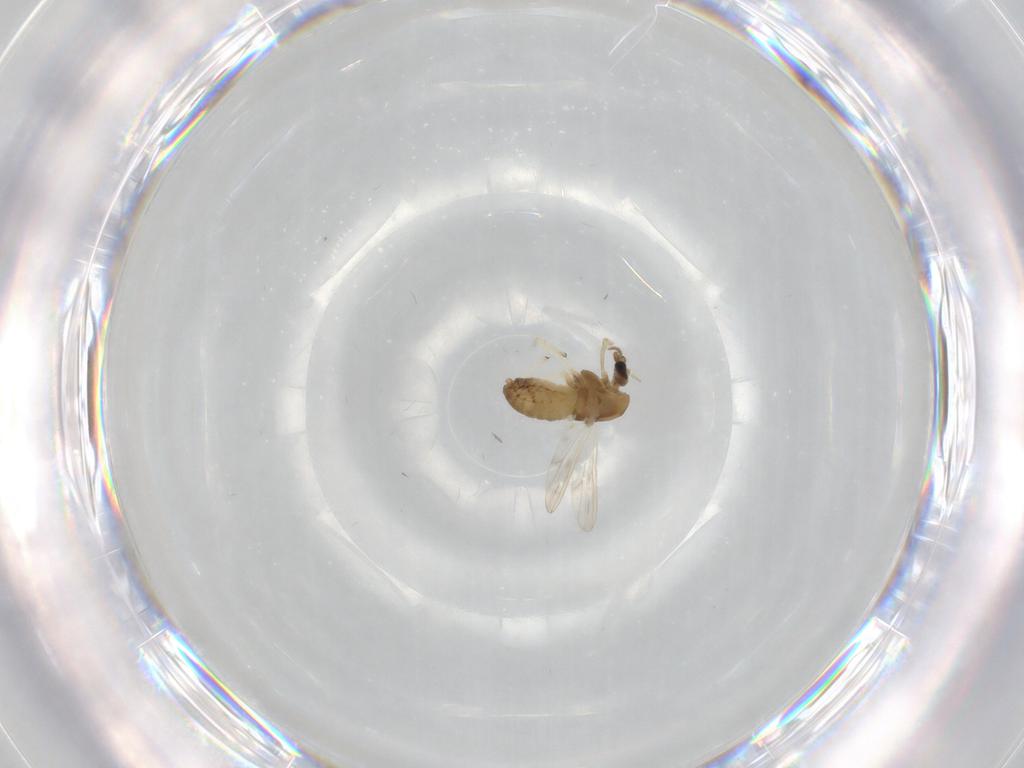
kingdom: Animalia
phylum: Arthropoda
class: Insecta
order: Diptera
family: Chironomidae
